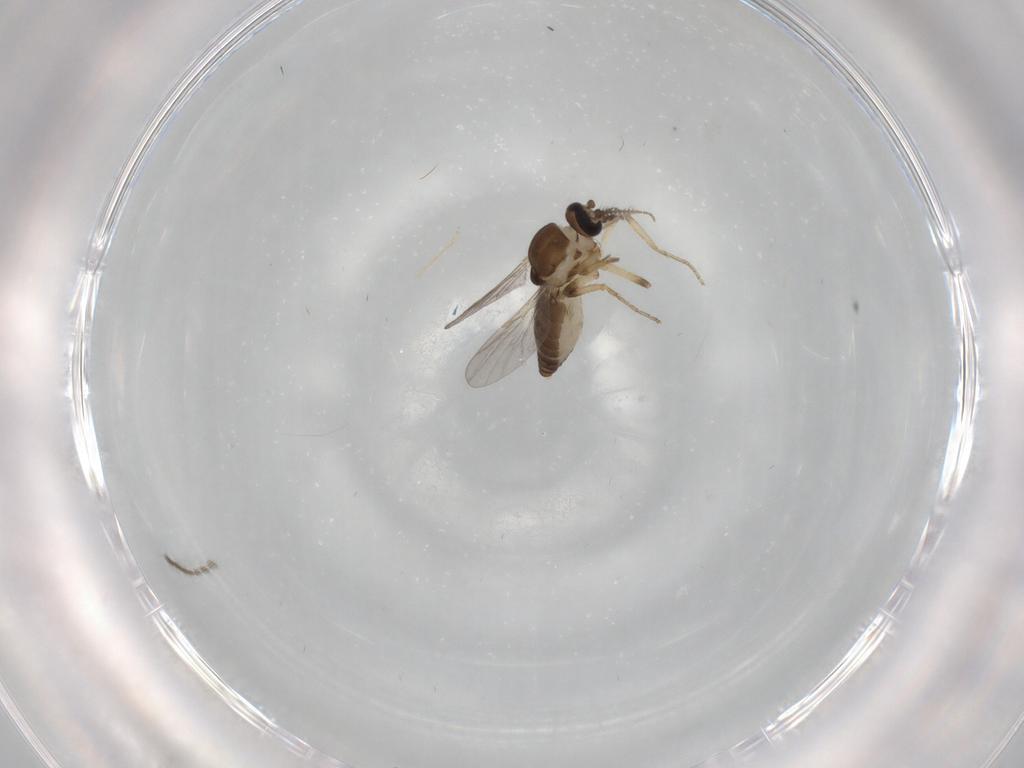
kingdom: Animalia
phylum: Arthropoda
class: Insecta
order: Diptera
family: Ceratopogonidae
